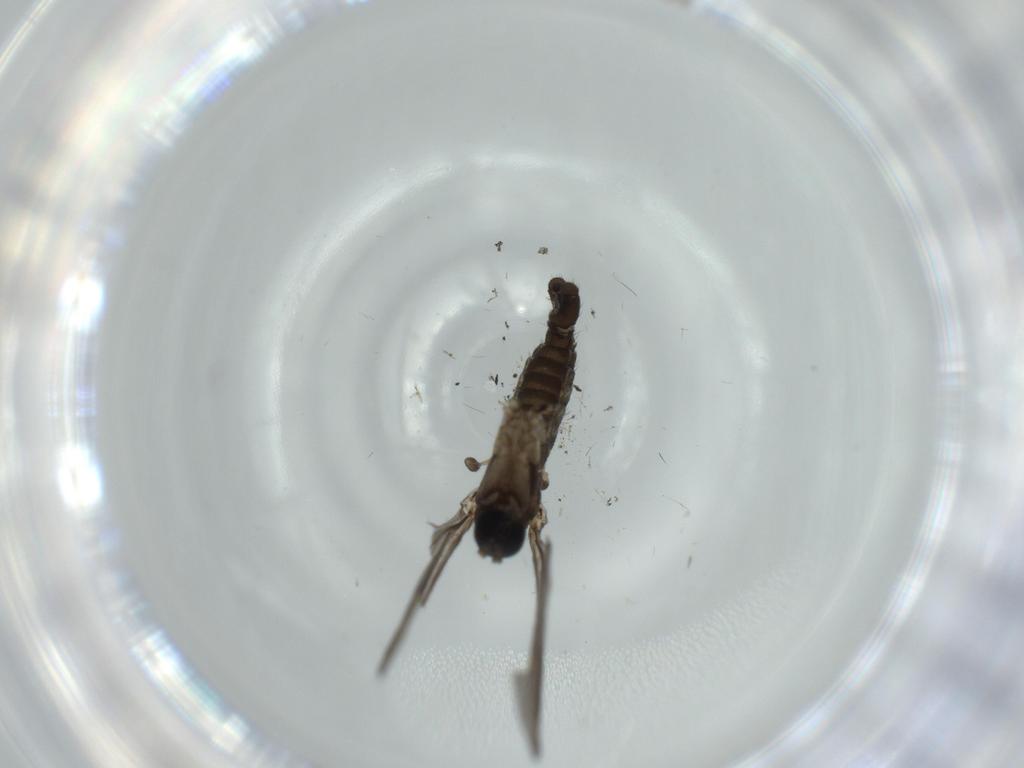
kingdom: Animalia
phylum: Arthropoda
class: Insecta
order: Diptera
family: Sciaridae
